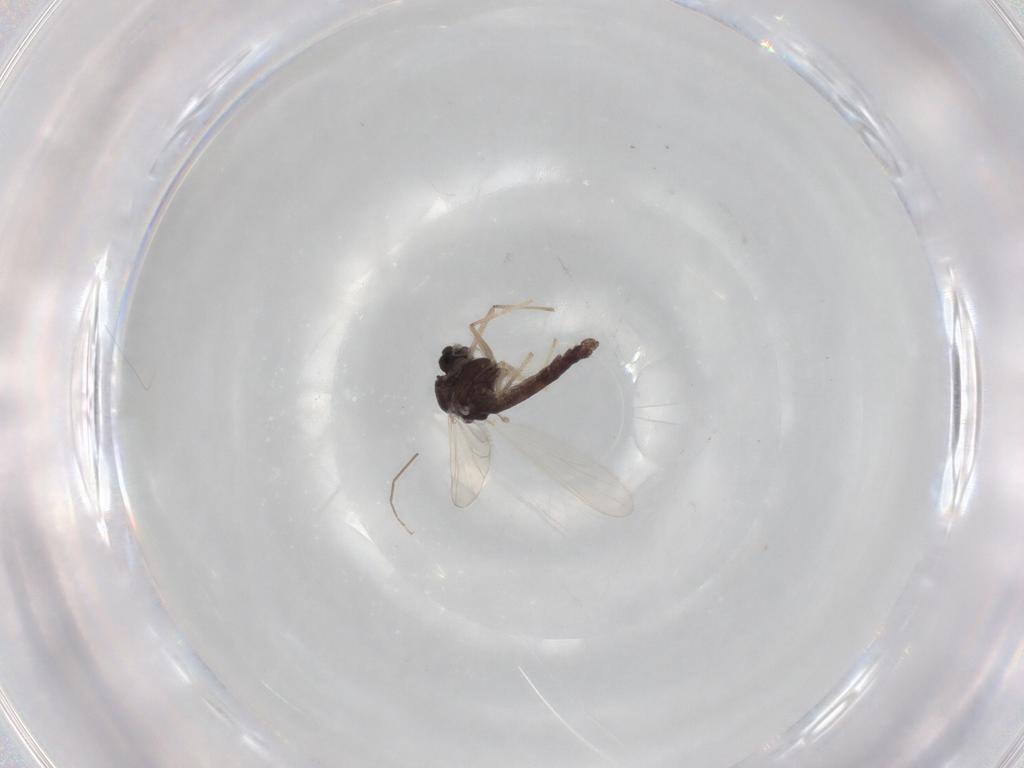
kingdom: Animalia
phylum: Arthropoda
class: Insecta
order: Diptera
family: Chironomidae
